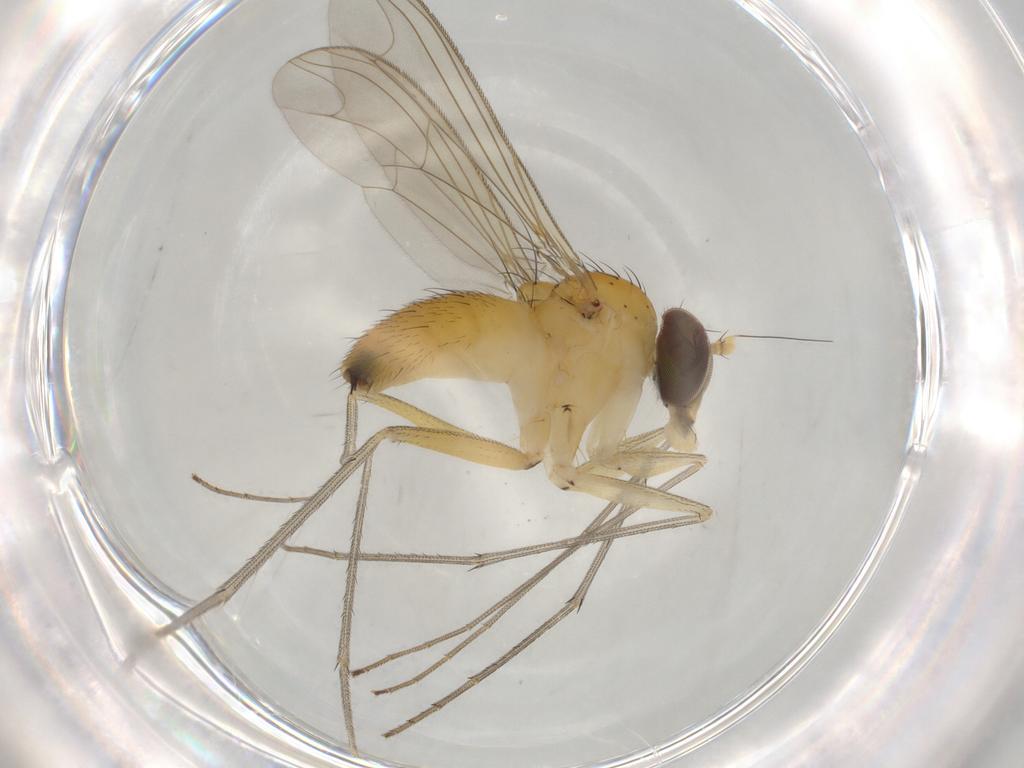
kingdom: Animalia
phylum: Arthropoda
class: Insecta
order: Diptera
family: Dolichopodidae
